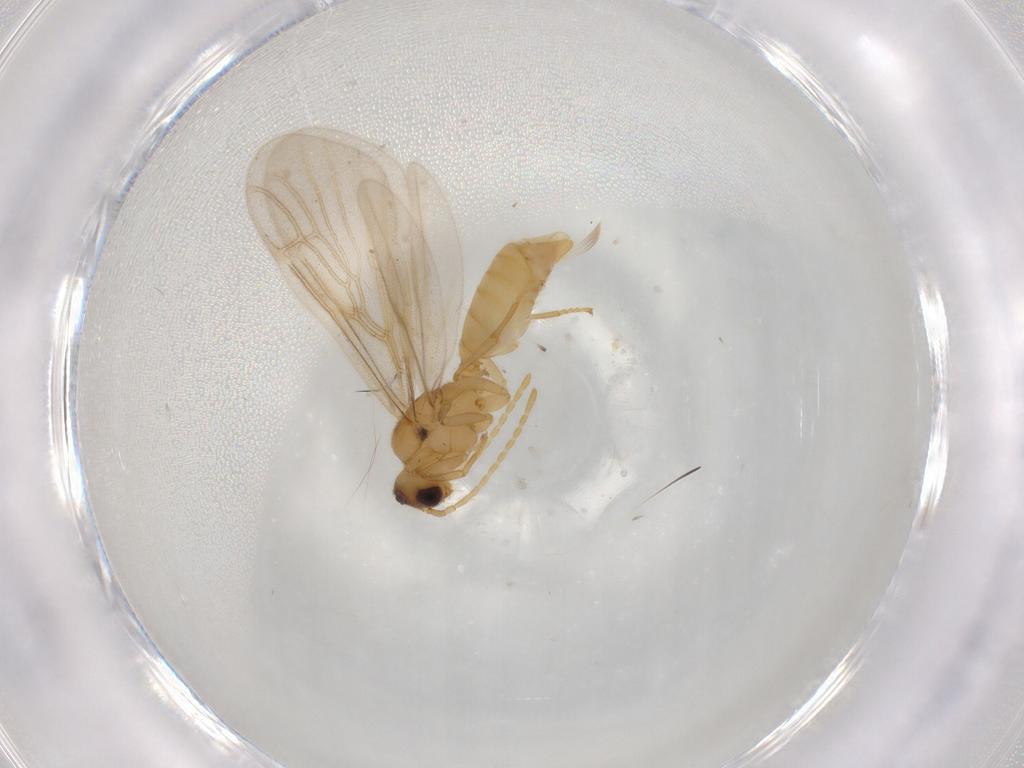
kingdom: Animalia
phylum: Arthropoda
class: Insecta
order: Hymenoptera
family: Formicidae
